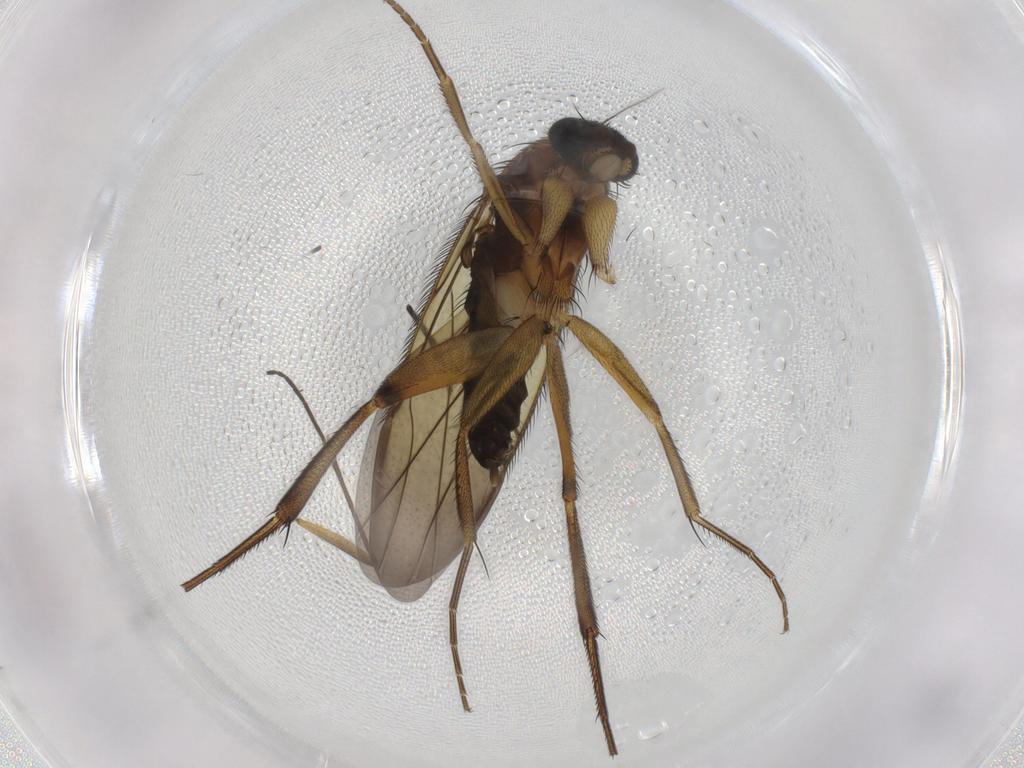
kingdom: Animalia
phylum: Arthropoda
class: Insecta
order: Diptera
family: Phoridae
